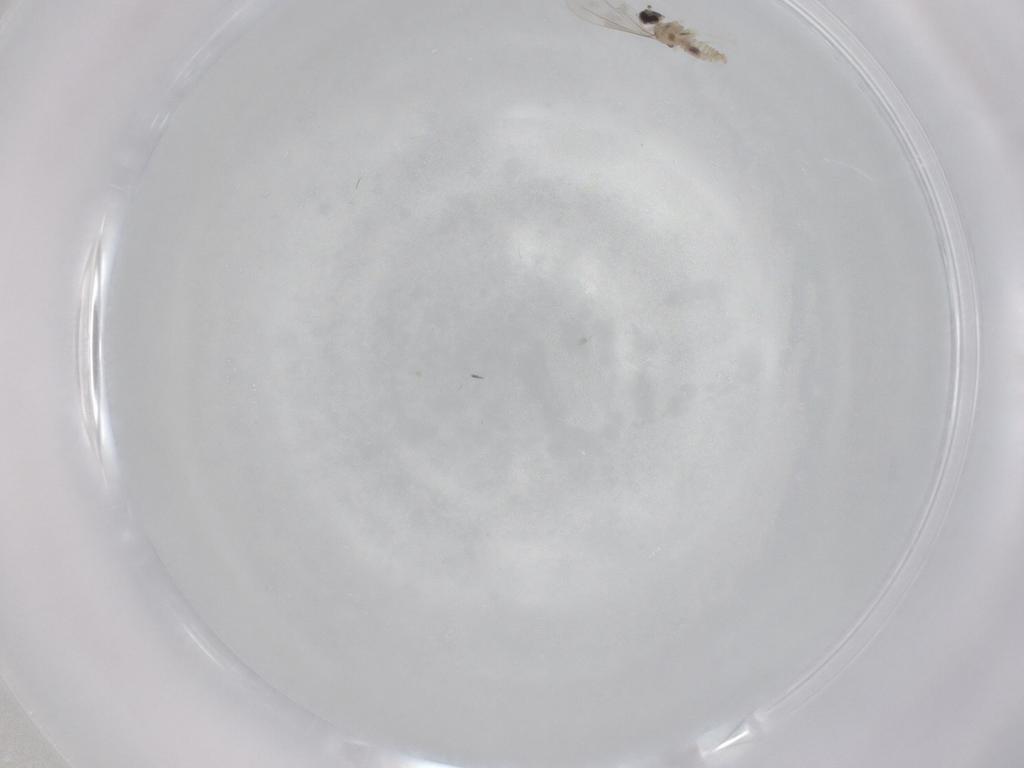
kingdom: Animalia
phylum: Arthropoda
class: Insecta
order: Diptera
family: Cecidomyiidae
